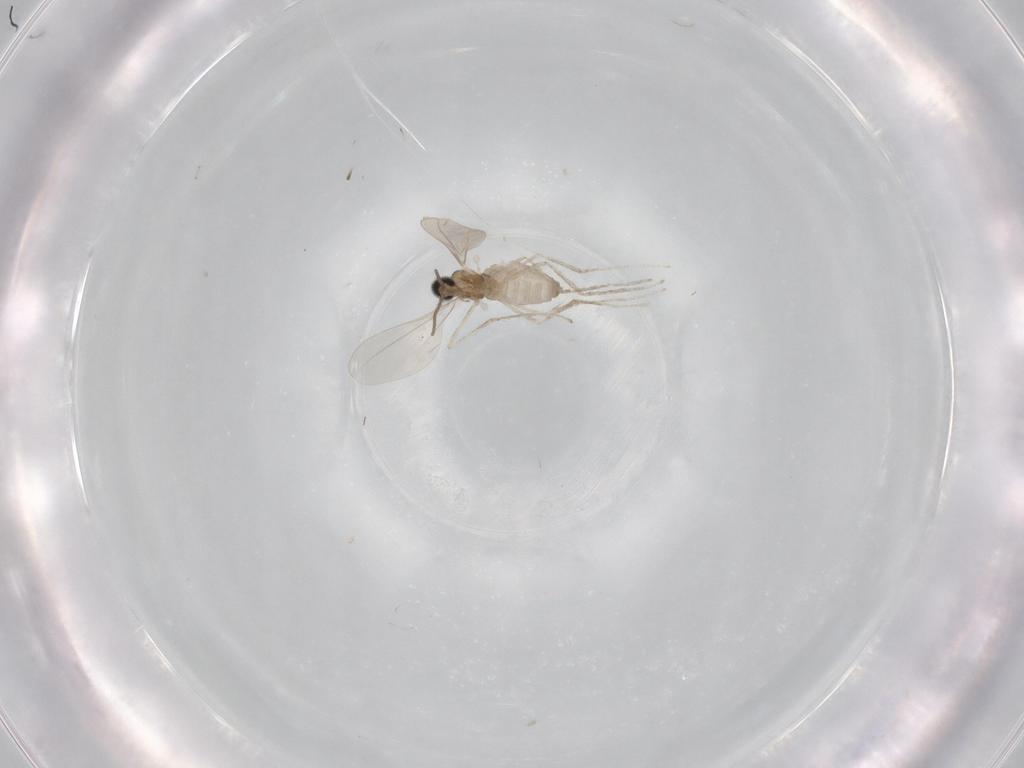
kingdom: Animalia
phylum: Arthropoda
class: Insecta
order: Diptera
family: Cecidomyiidae
